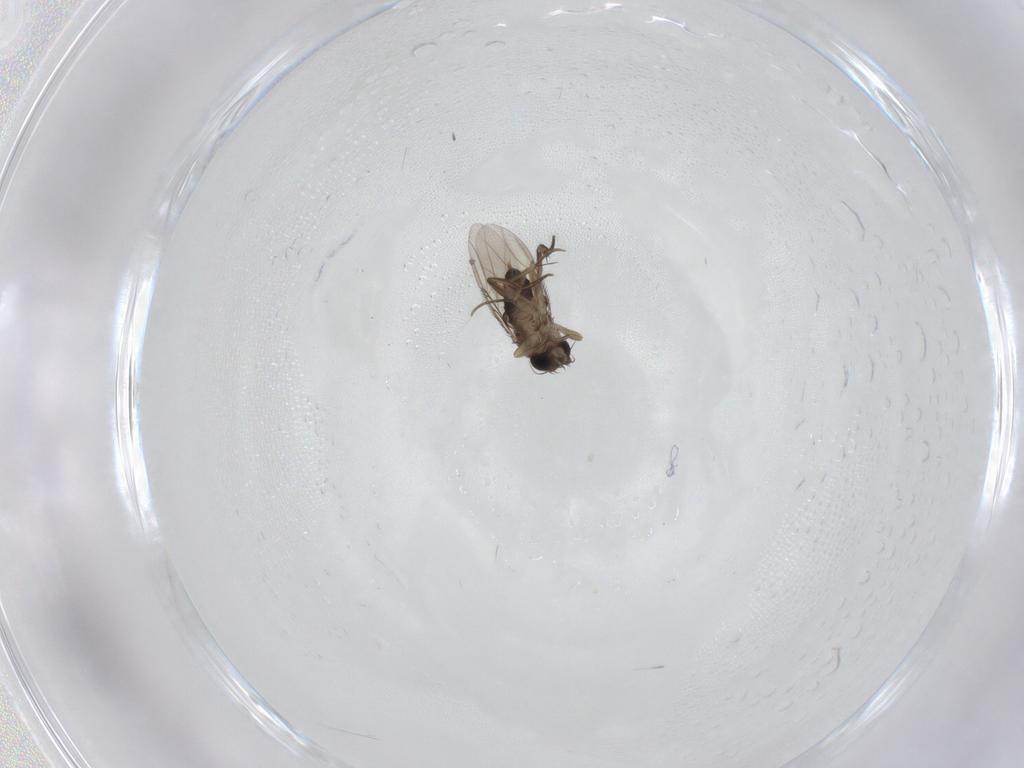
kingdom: Animalia
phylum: Arthropoda
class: Insecta
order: Diptera
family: Phoridae
